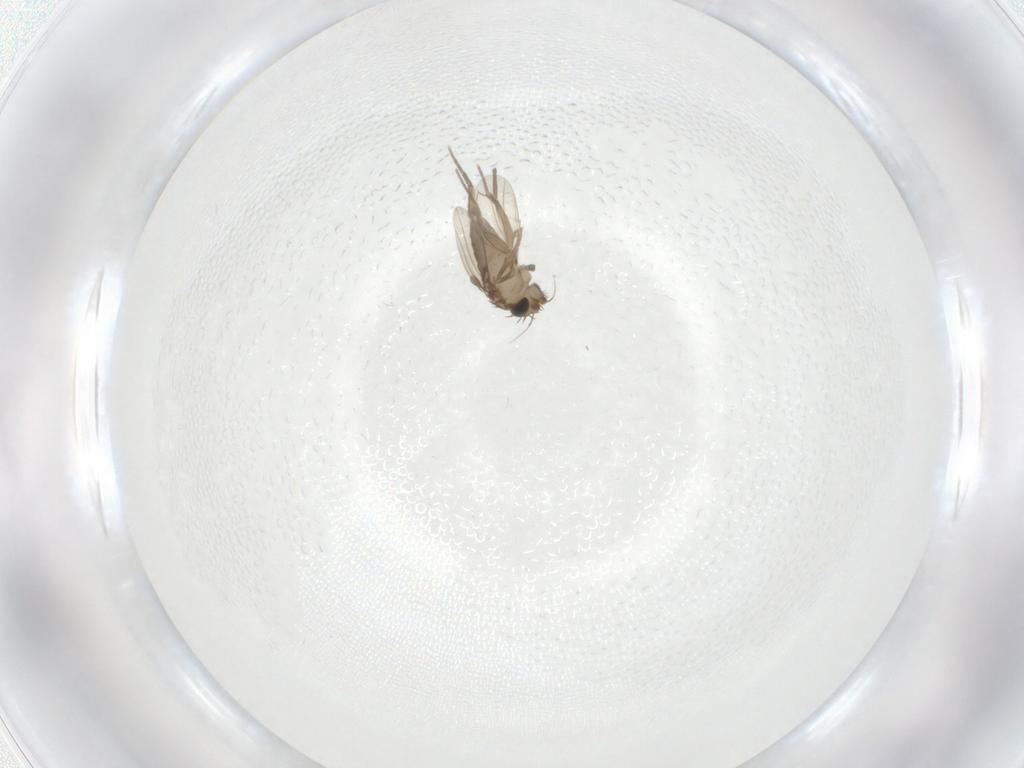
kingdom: Animalia
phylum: Arthropoda
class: Insecta
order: Diptera
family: Phoridae
